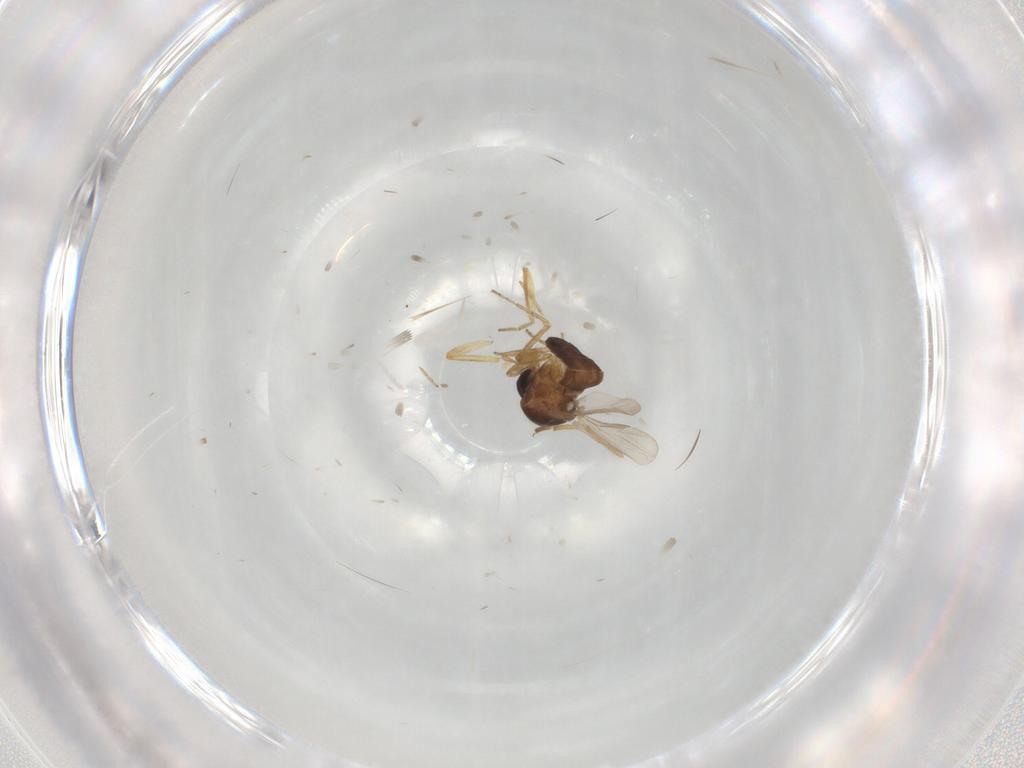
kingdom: Animalia
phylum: Arthropoda
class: Insecta
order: Diptera
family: Ceratopogonidae
